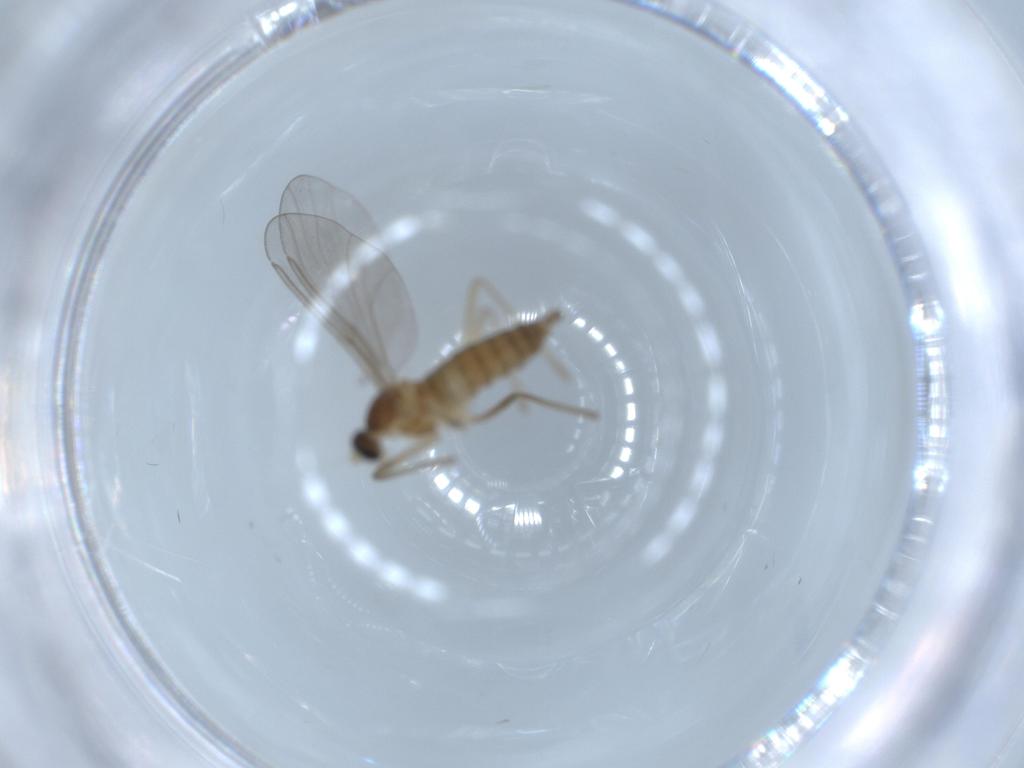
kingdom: Animalia
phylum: Arthropoda
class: Insecta
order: Diptera
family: Cecidomyiidae
